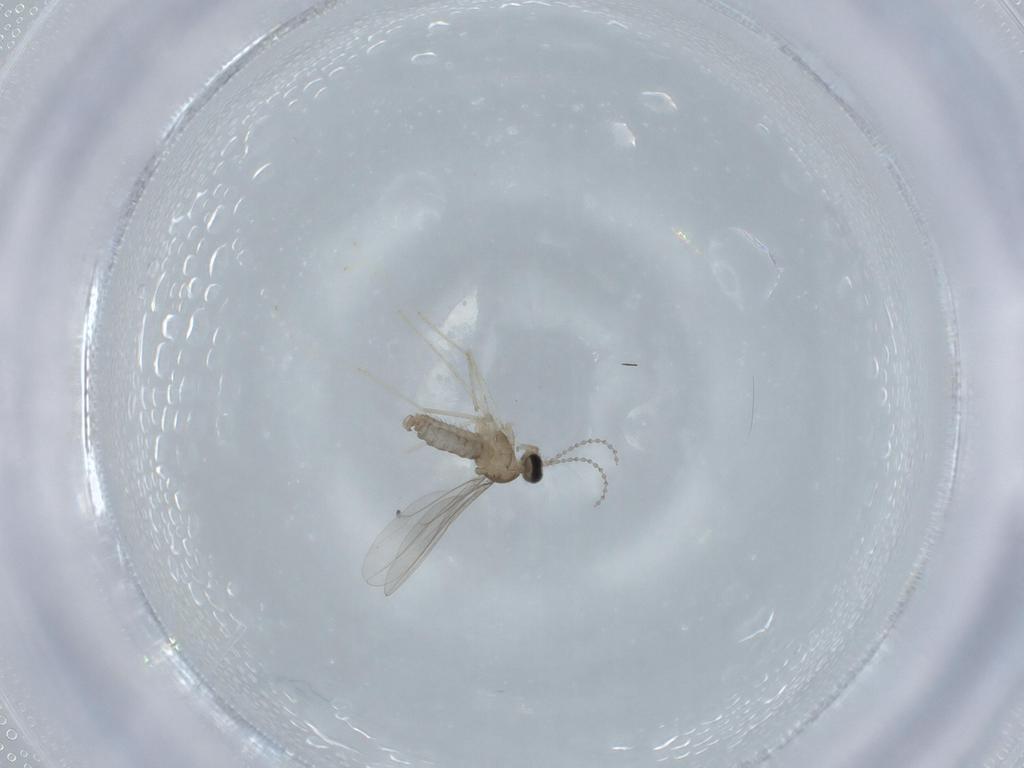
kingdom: Animalia
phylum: Arthropoda
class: Insecta
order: Diptera
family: Cecidomyiidae
